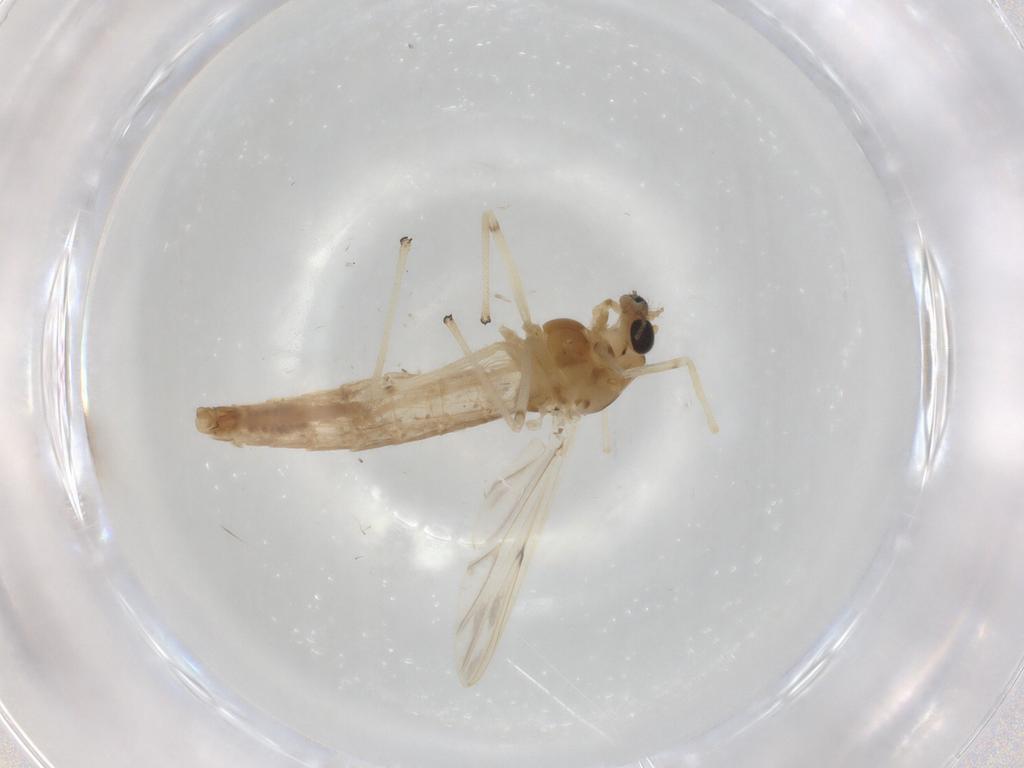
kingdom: Animalia
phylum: Arthropoda
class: Insecta
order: Diptera
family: Chironomidae
